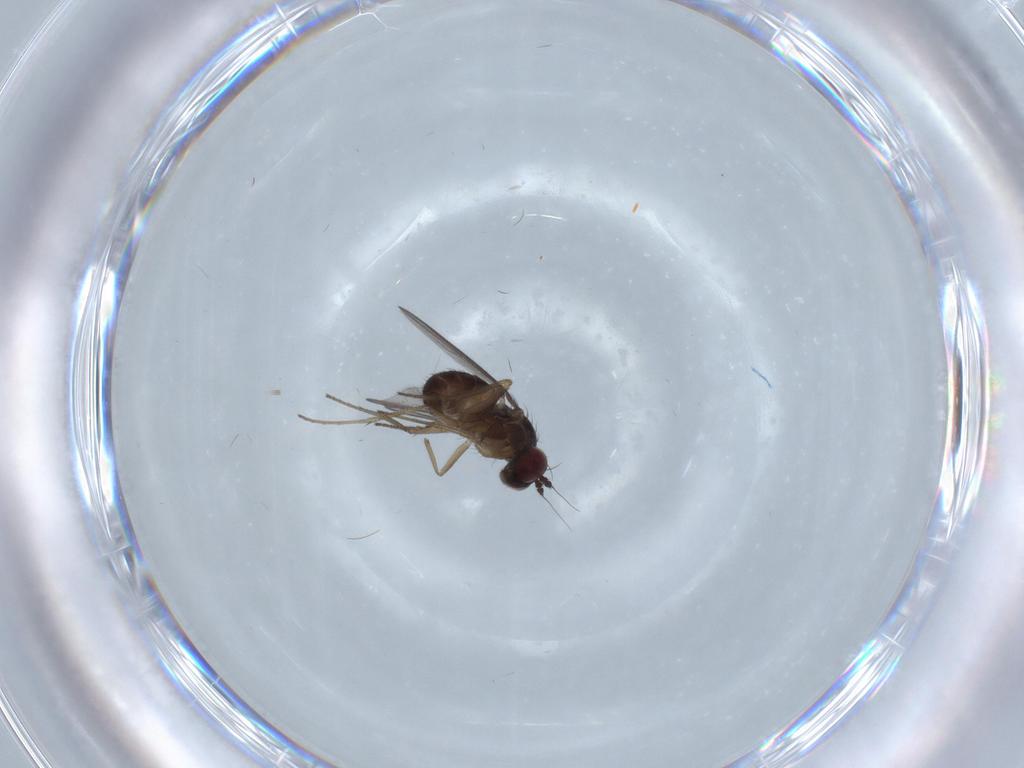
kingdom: Animalia
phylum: Arthropoda
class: Insecta
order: Diptera
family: Dolichopodidae
